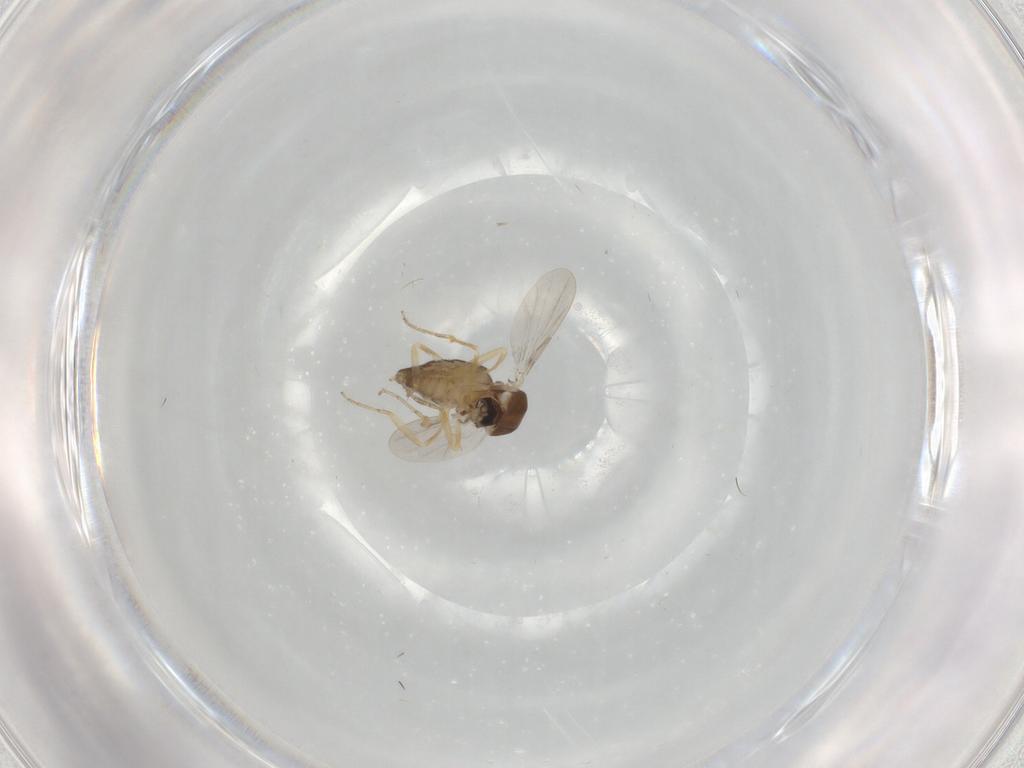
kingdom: Animalia
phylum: Arthropoda
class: Insecta
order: Diptera
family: Ceratopogonidae
